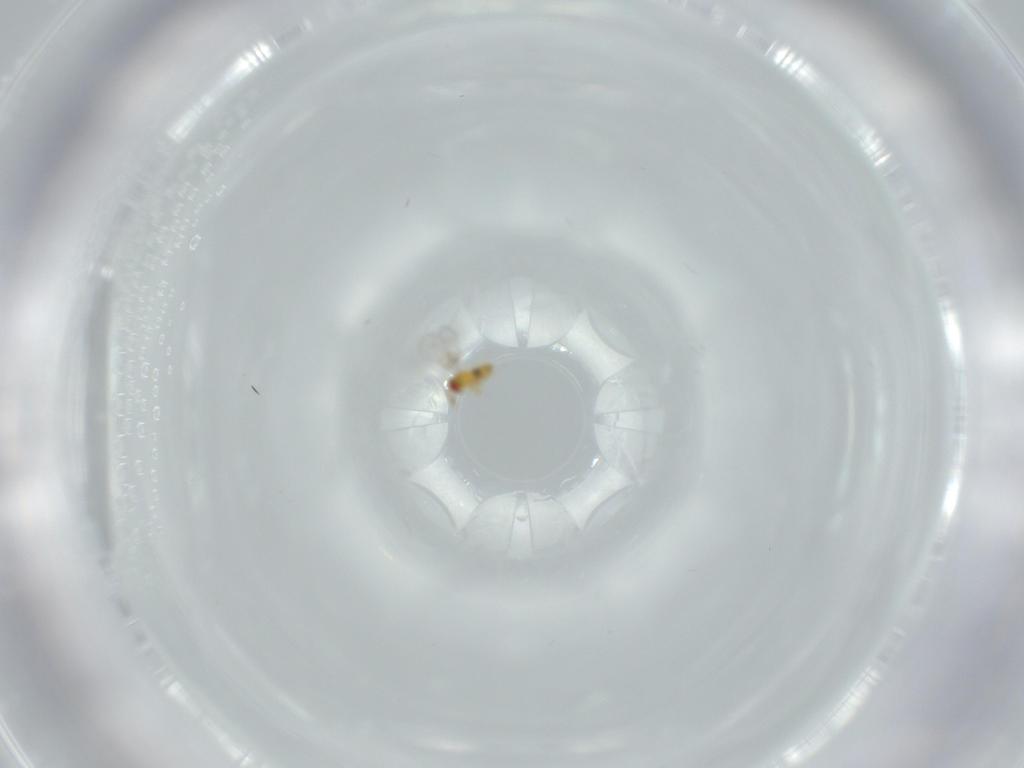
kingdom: Animalia
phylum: Arthropoda
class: Insecta
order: Hymenoptera
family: Trichogrammatidae
